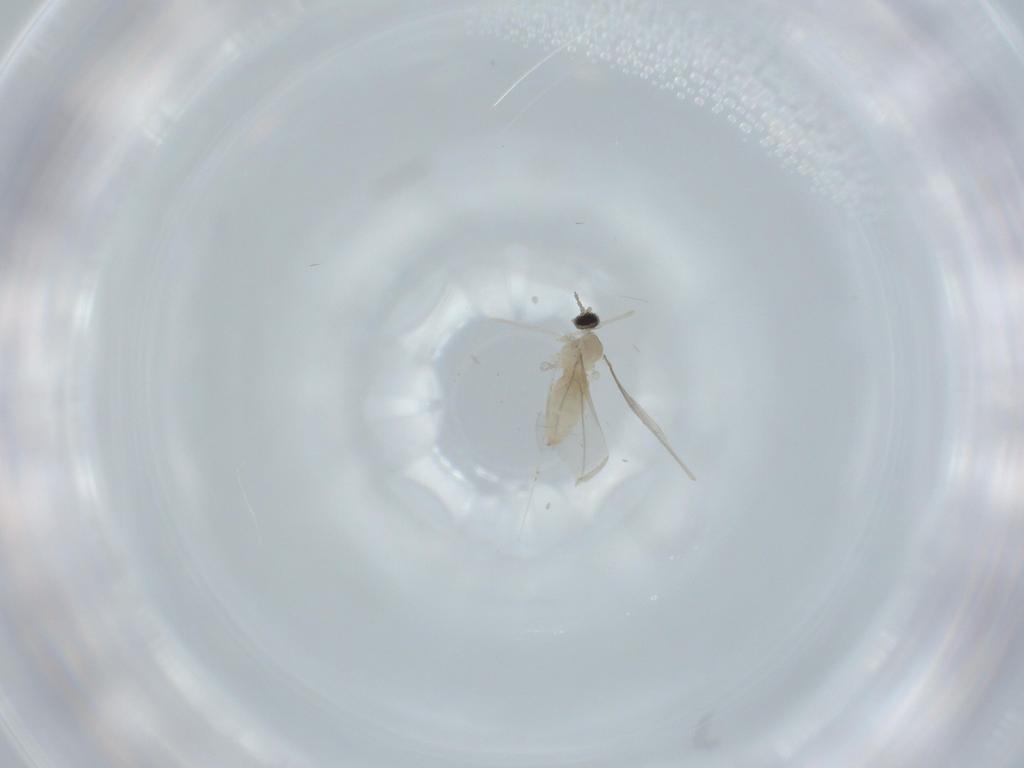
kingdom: Animalia
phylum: Arthropoda
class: Insecta
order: Diptera
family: Cecidomyiidae
